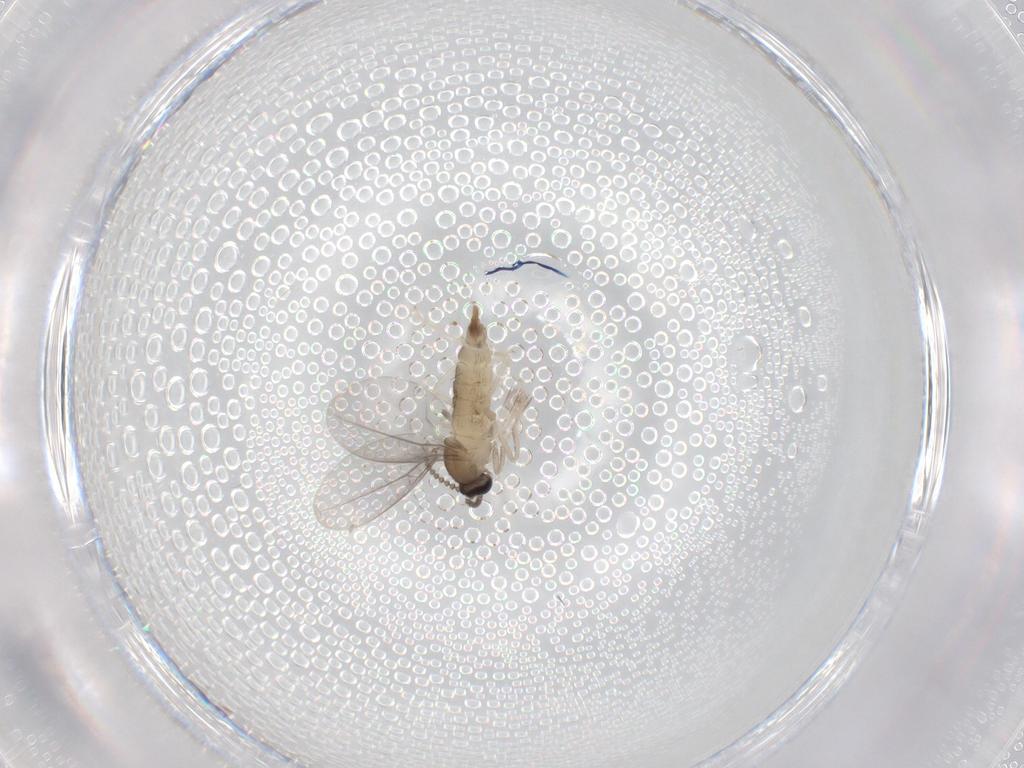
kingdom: Animalia
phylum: Arthropoda
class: Insecta
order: Diptera
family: Cecidomyiidae
